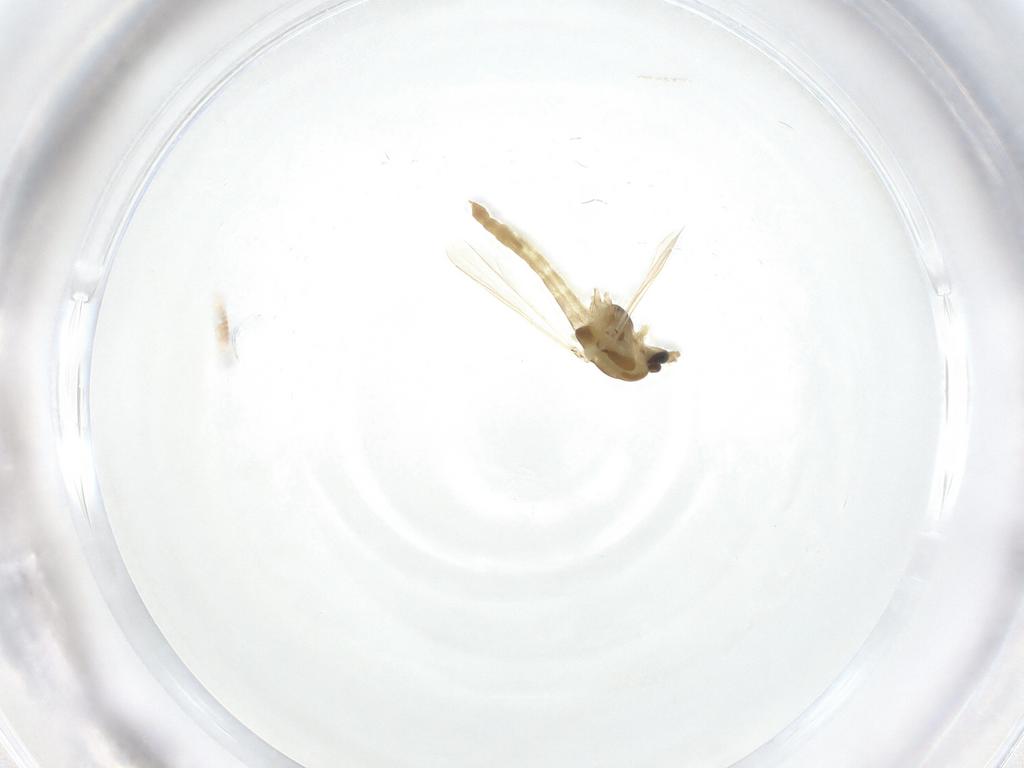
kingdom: Animalia
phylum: Arthropoda
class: Insecta
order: Diptera
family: Chironomidae
